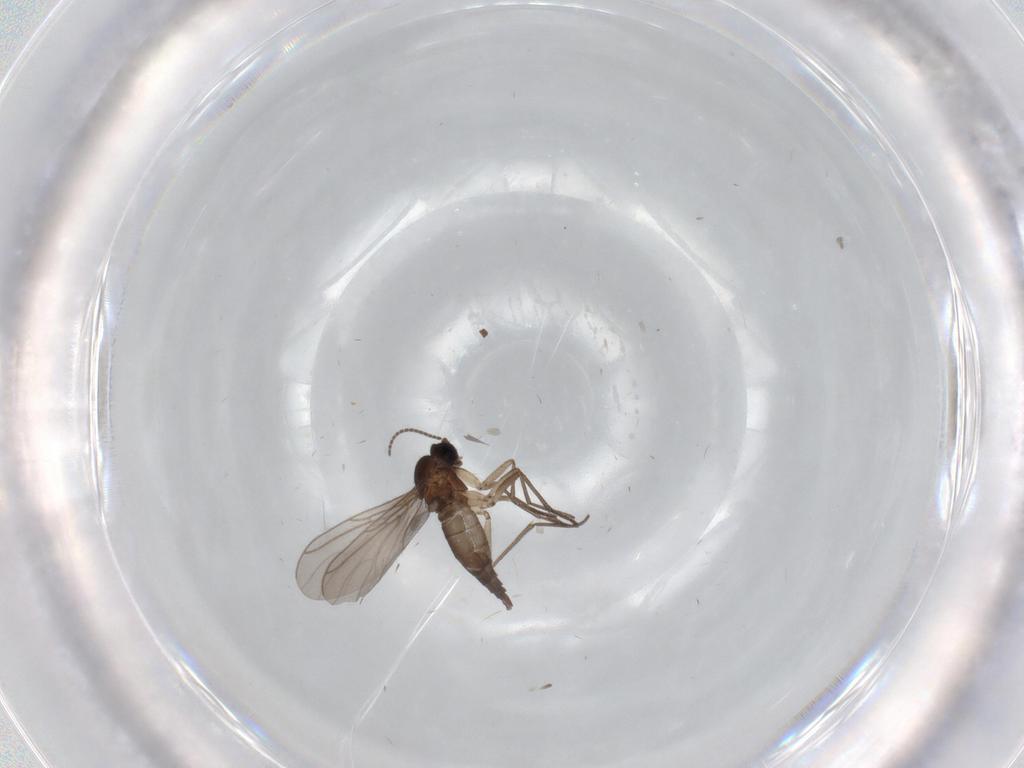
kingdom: Animalia
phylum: Arthropoda
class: Insecta
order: Diptera
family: Sciaridae
